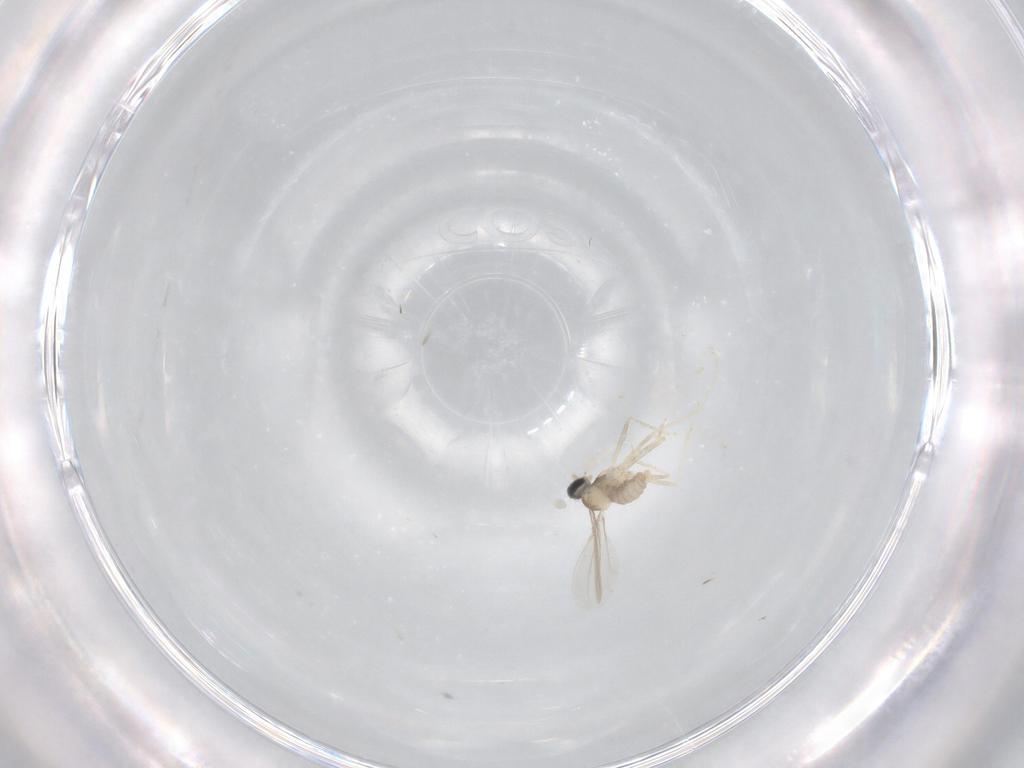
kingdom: Animalia
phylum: Arthropoda
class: Insecta
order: Diptera
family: Cecidomyiidae
